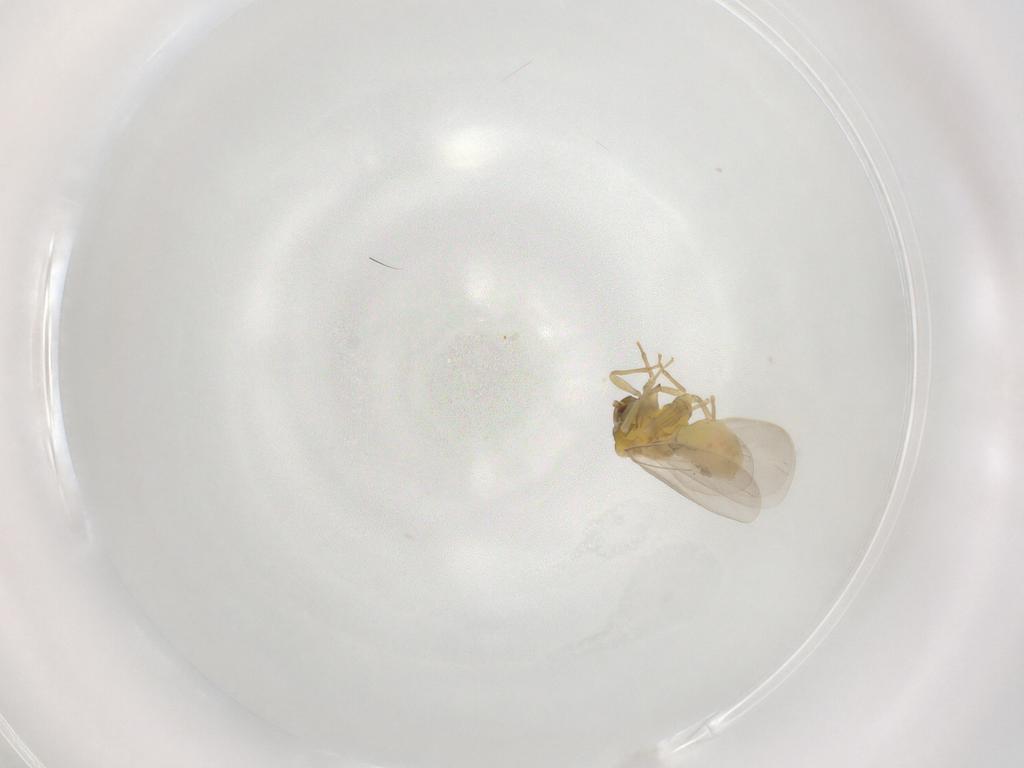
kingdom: Animalia
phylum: Arthropoda
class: Insecta
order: Hemiptera
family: Aleyrodidae
